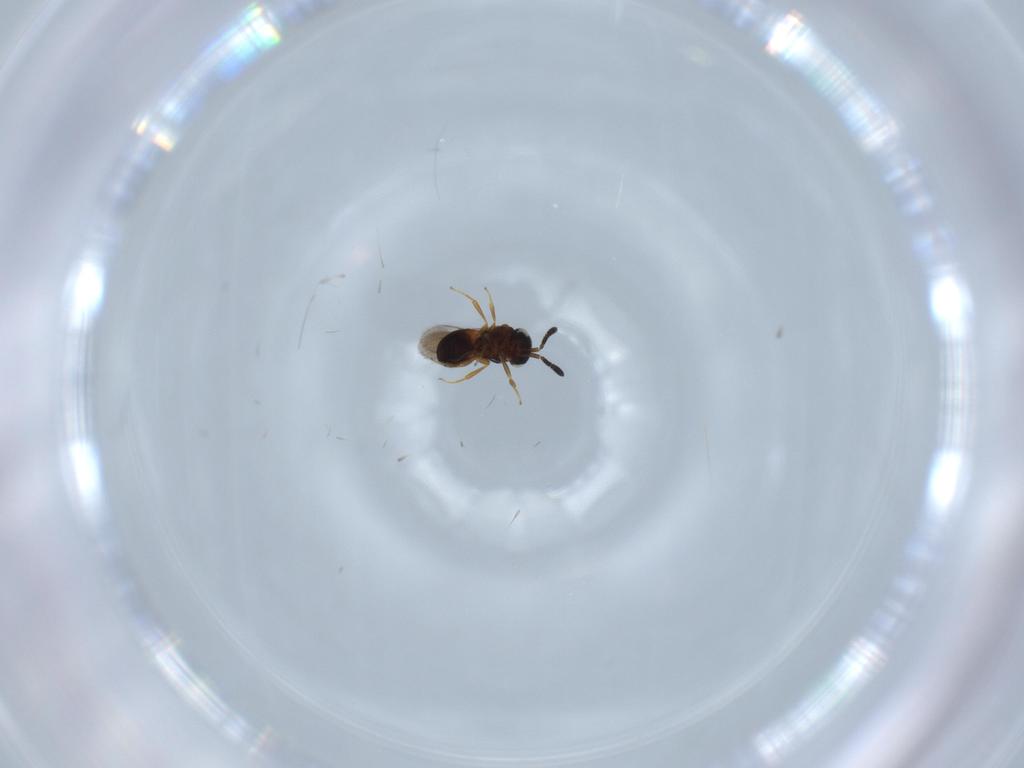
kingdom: Animalia
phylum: Arthropoda
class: Insecta
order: Hymenoptera
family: Scelionidae
